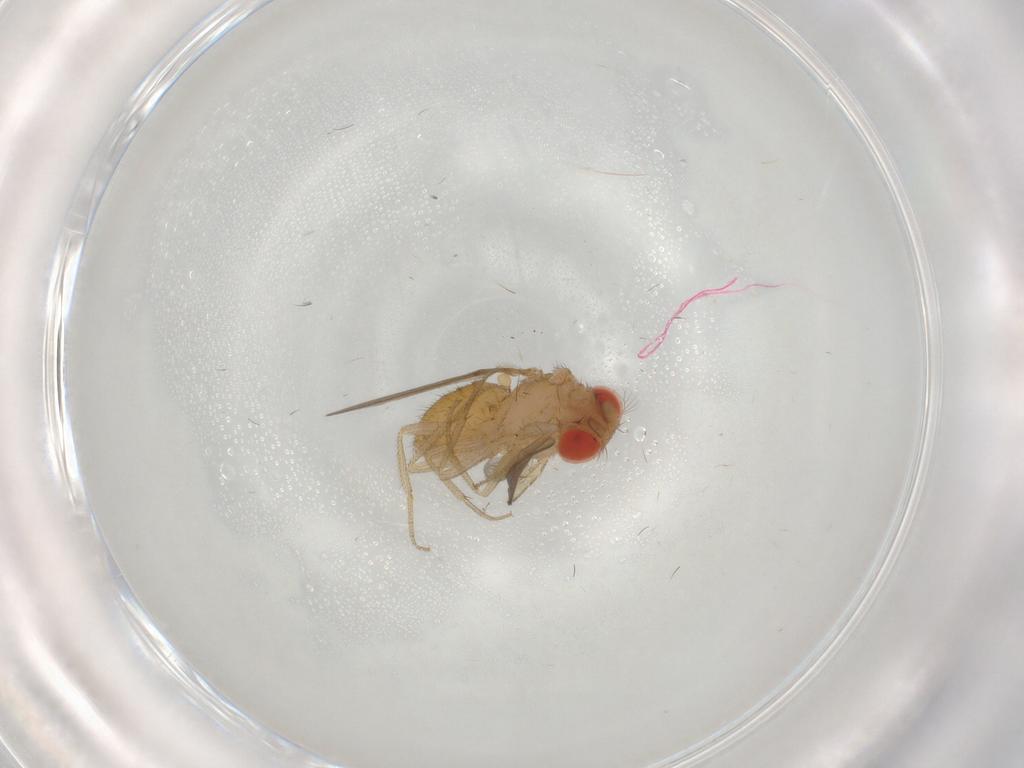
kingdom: Animalia
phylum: Arthropoda
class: Insecta
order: Diptera
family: Drosophilidae
